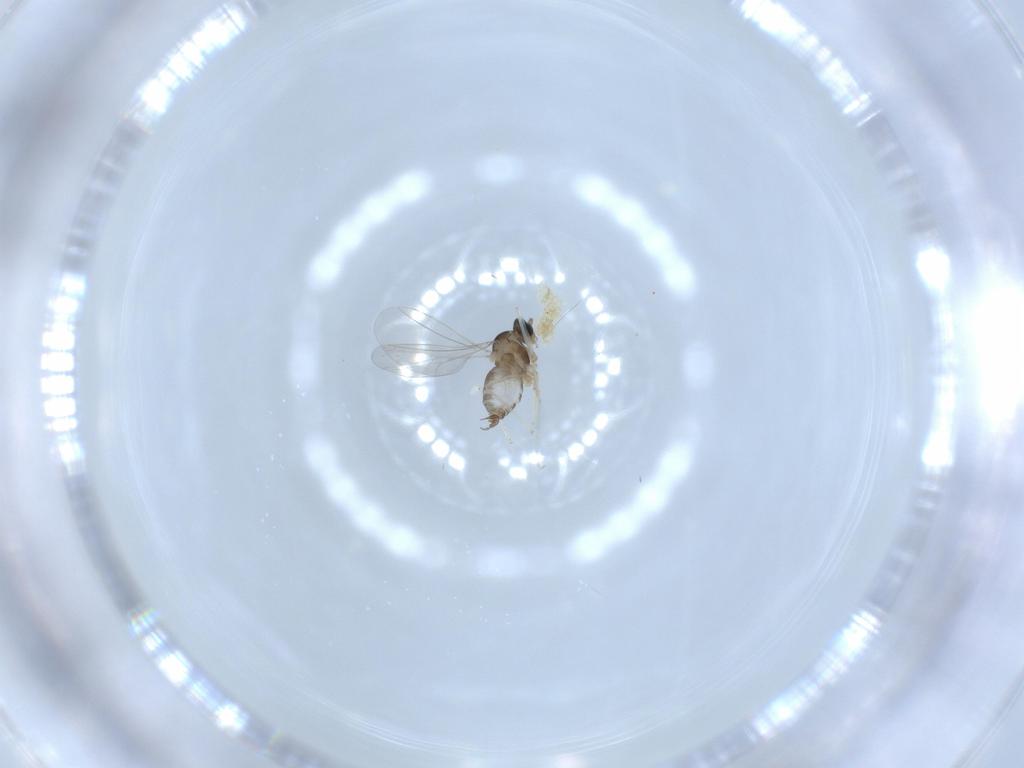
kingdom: Animalia
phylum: Arthropoda
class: Insecta
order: Diptera
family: Cecidomyiidae
